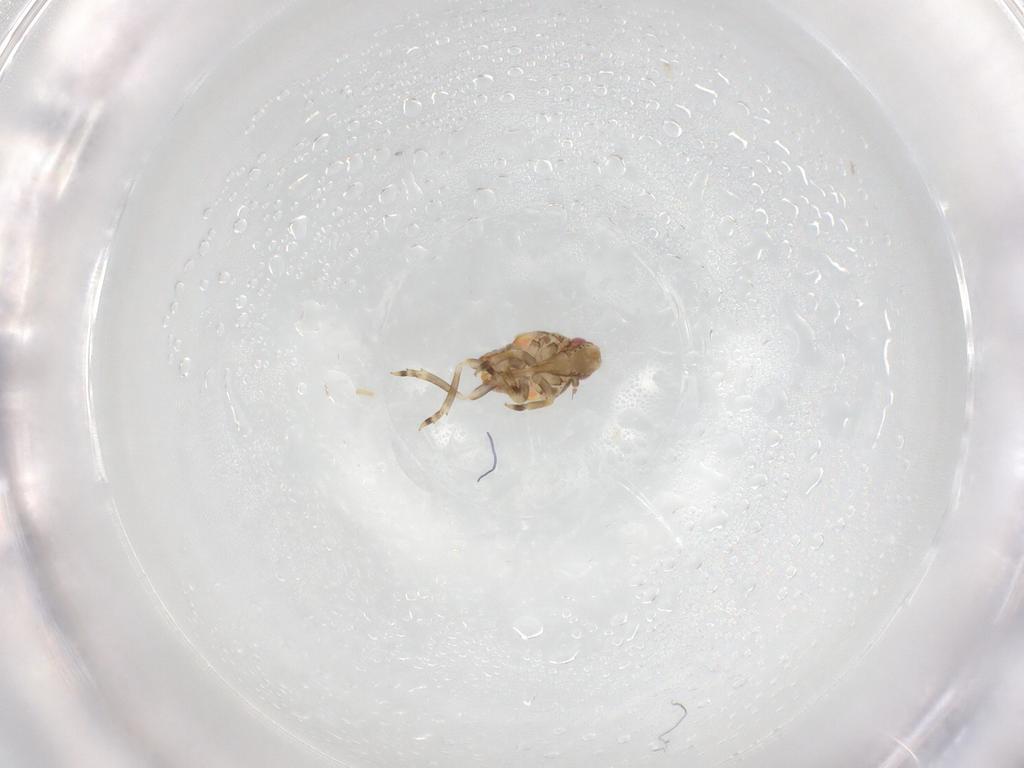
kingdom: Animalia
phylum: Arthropoda
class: Insecta
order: Hemiptera
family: Flatidae
